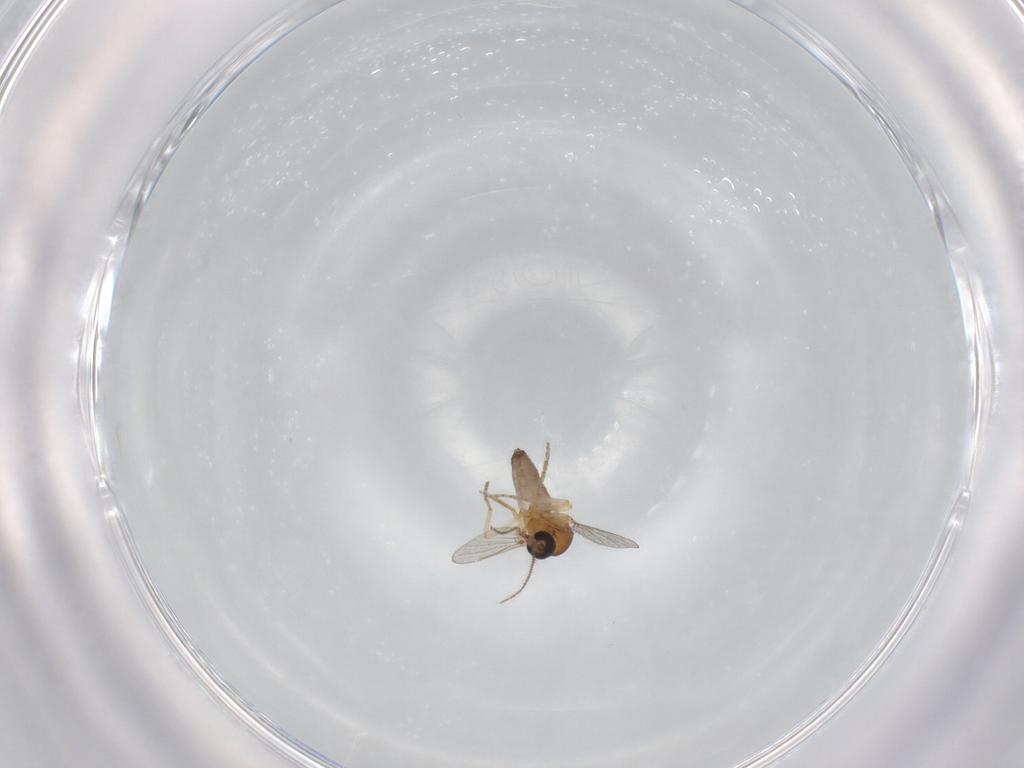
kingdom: Animalia
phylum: Arthropoda
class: Insecta
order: Diptera
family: Ceratopogonidae
